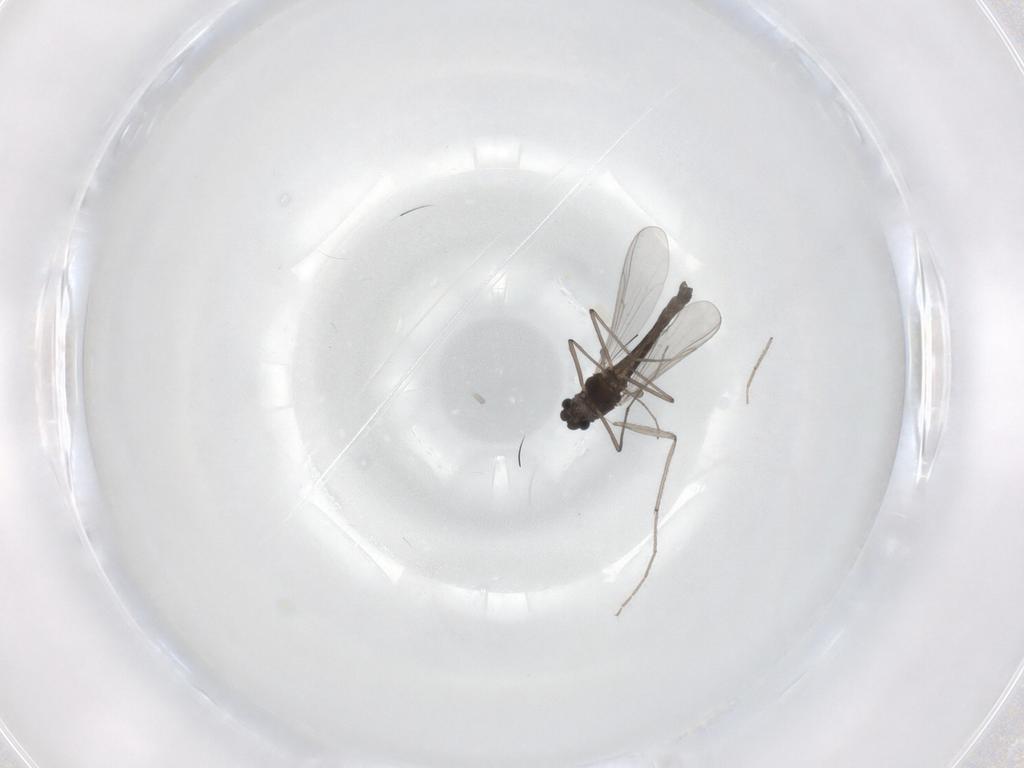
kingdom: Animalia
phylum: Arthropoda
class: Insecta
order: Diptera
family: Chironomidae
